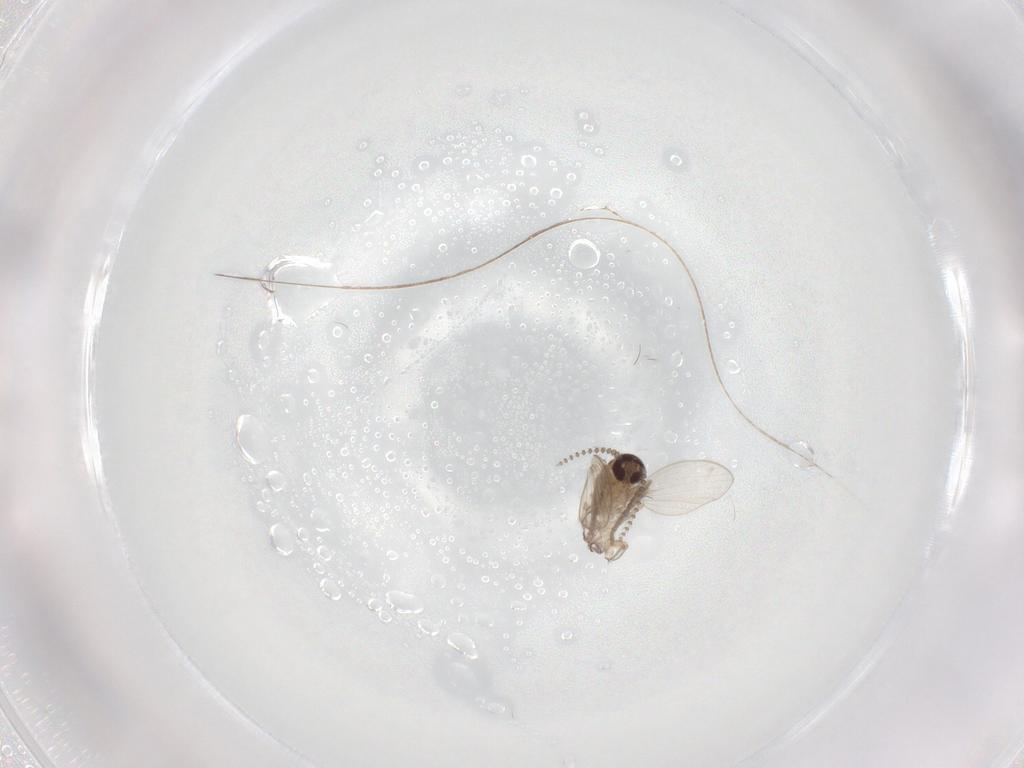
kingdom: Animalia
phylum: Arthropoda
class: Insecta
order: Diptera
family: Psychodidae
